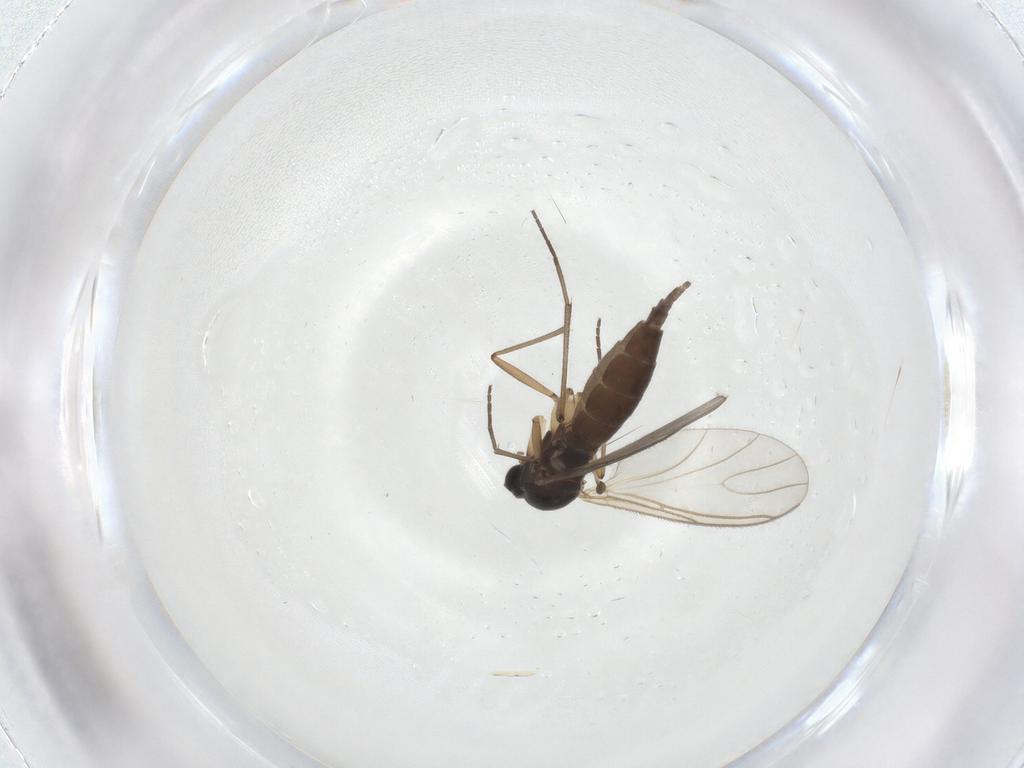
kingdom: Animalia
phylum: Arthropoda
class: Insecta
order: Diptera
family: Sciaridae
